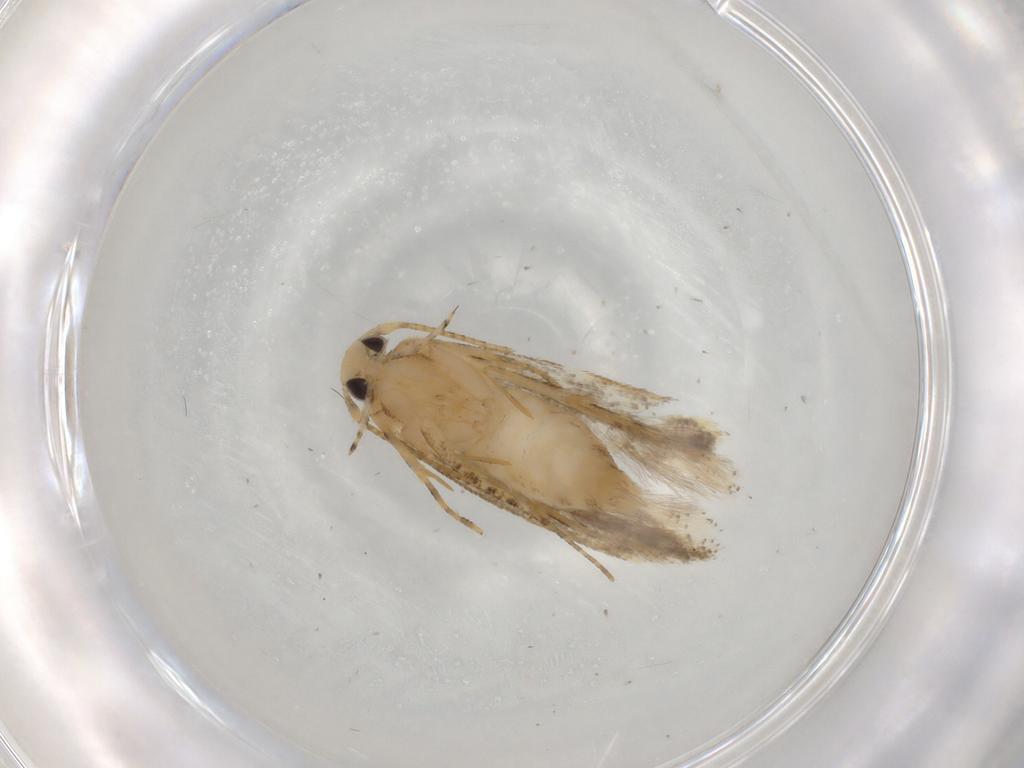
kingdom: Animalia
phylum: Arthropoda
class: Insecta
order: Lepidoptera
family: Gelechiidae
